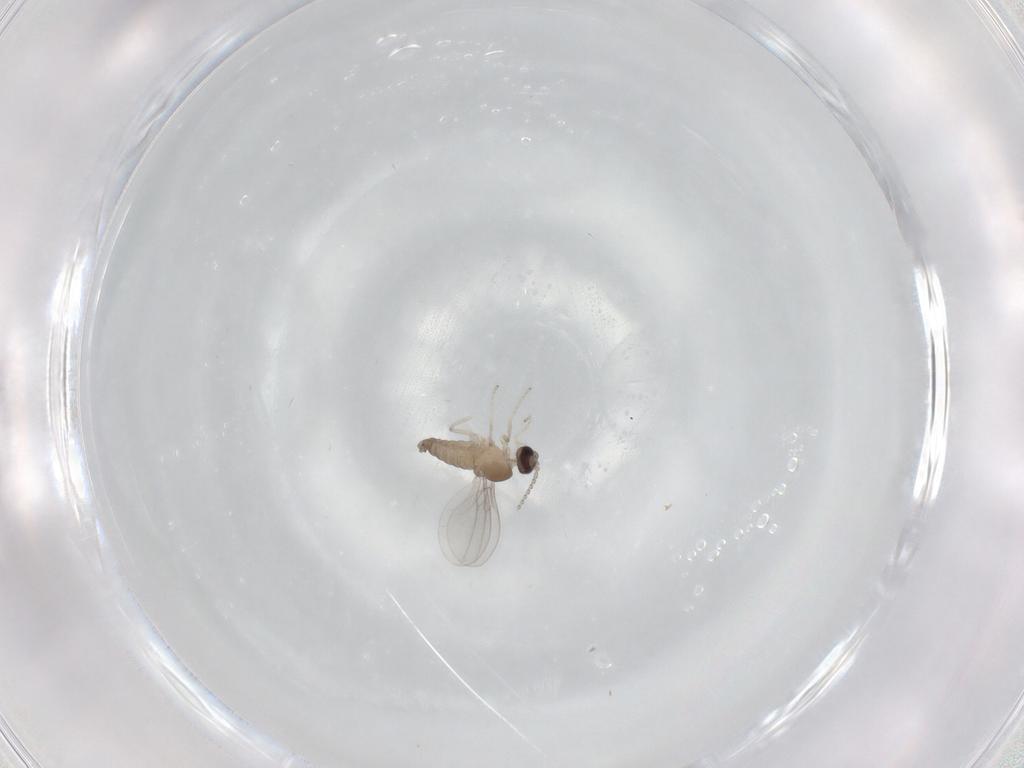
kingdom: Animalia
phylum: Arthropoda
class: Insecta
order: Diptera
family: Cecidomyiidae
